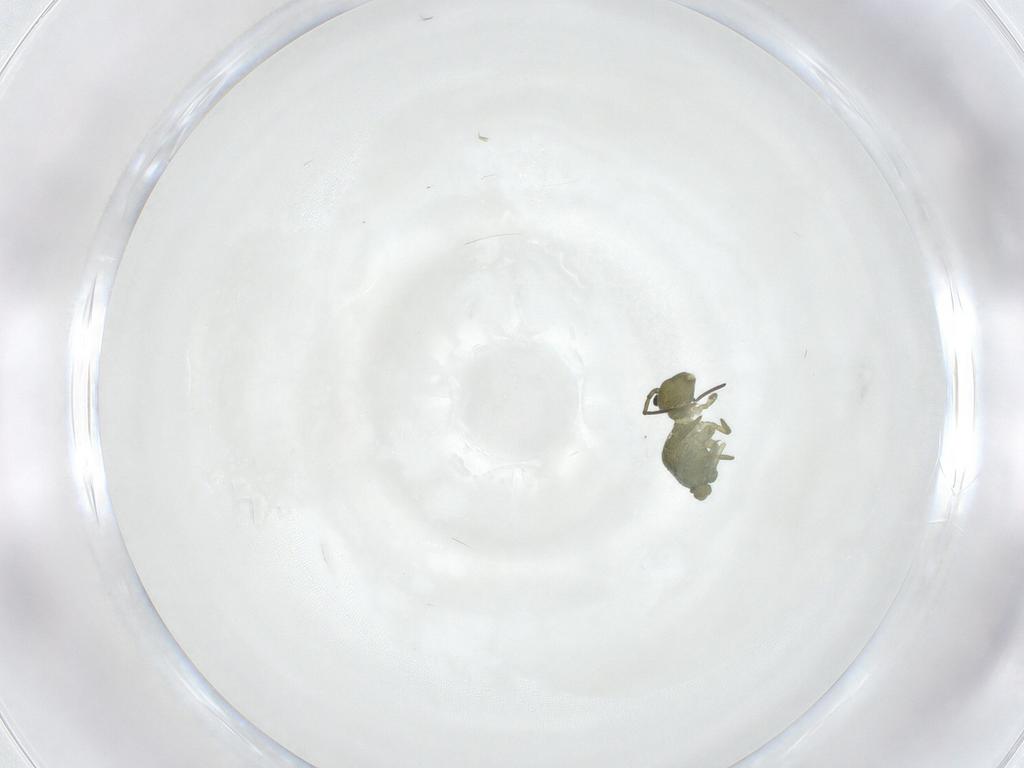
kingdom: Animalia
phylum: Arthropoda
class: Collembola
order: Symphypleona
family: Sminthuridae
